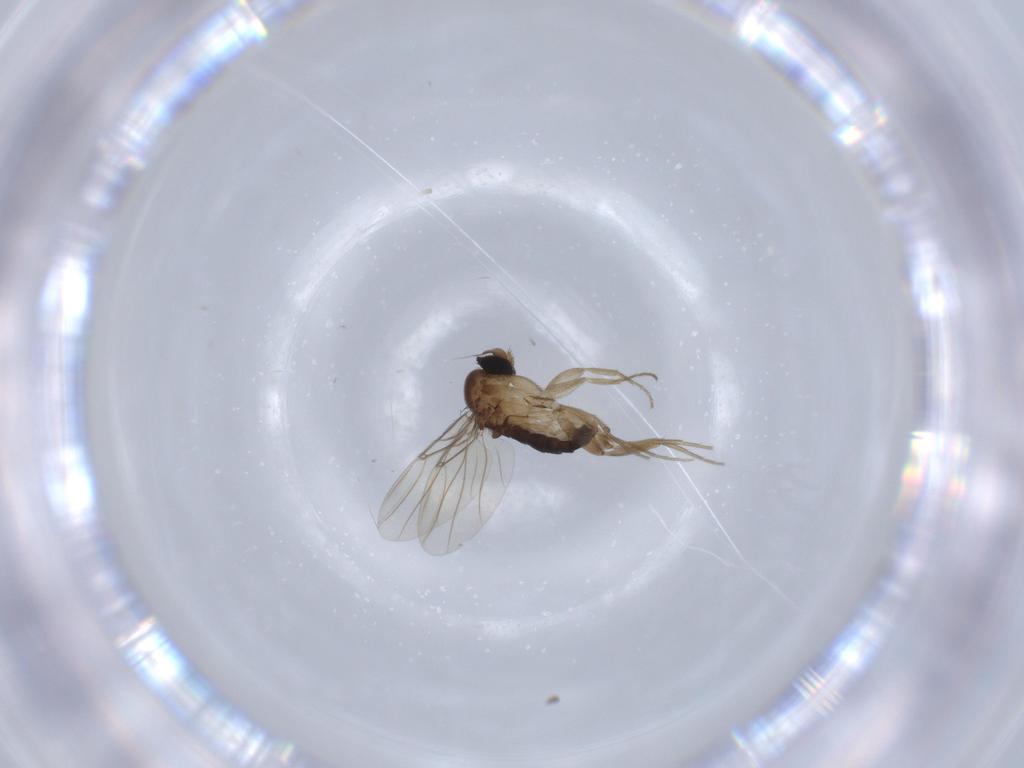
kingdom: Animalia
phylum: Arthropoda
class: Insecta
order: Diptera
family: Phoridae
